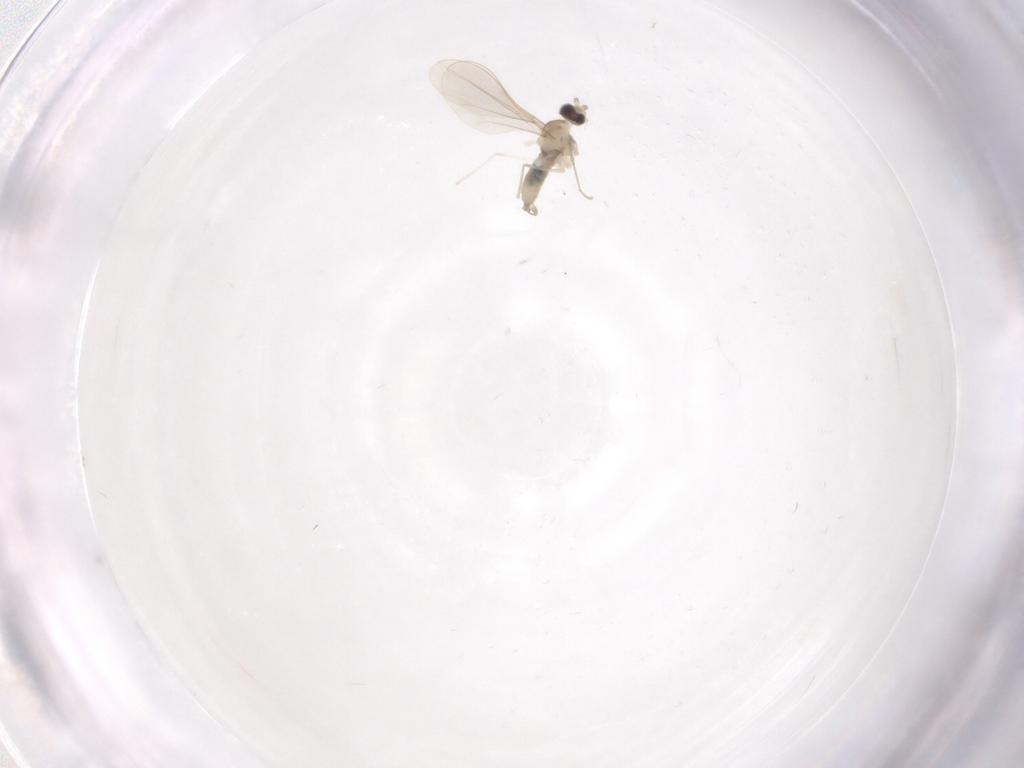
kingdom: Animalia
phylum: Arthropoda
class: Insecta
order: Diptera
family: Cecidomyiidae
